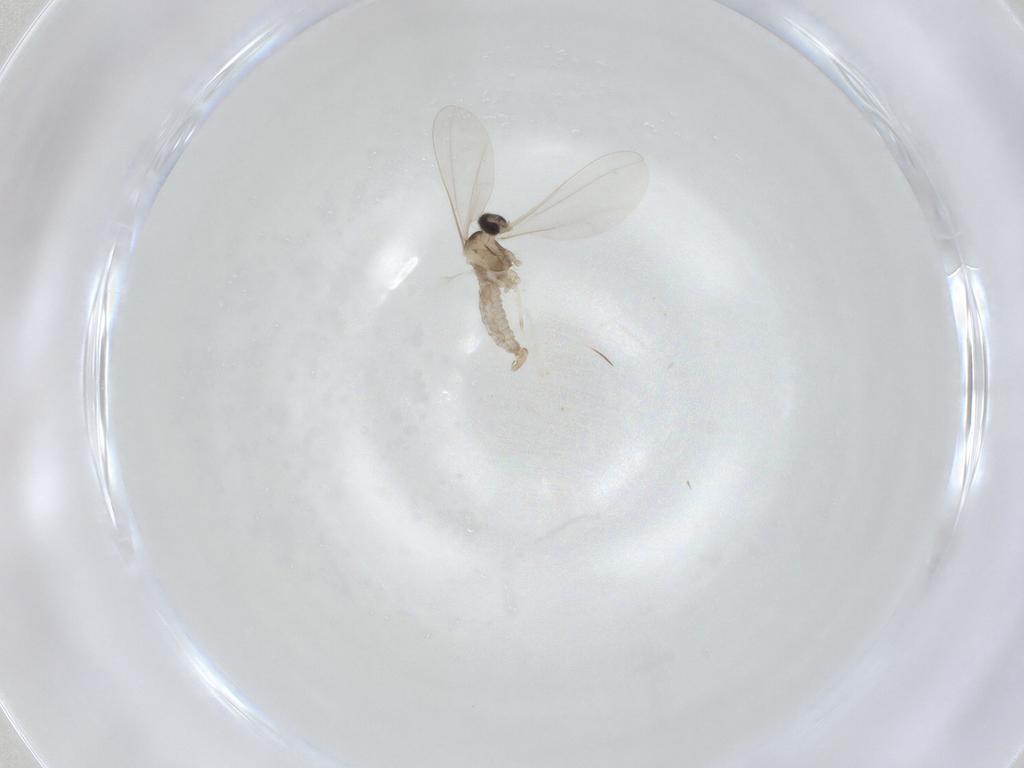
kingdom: Animalia
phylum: Arthropoda
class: Insecta
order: Diptera
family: Cecidomyiidae
